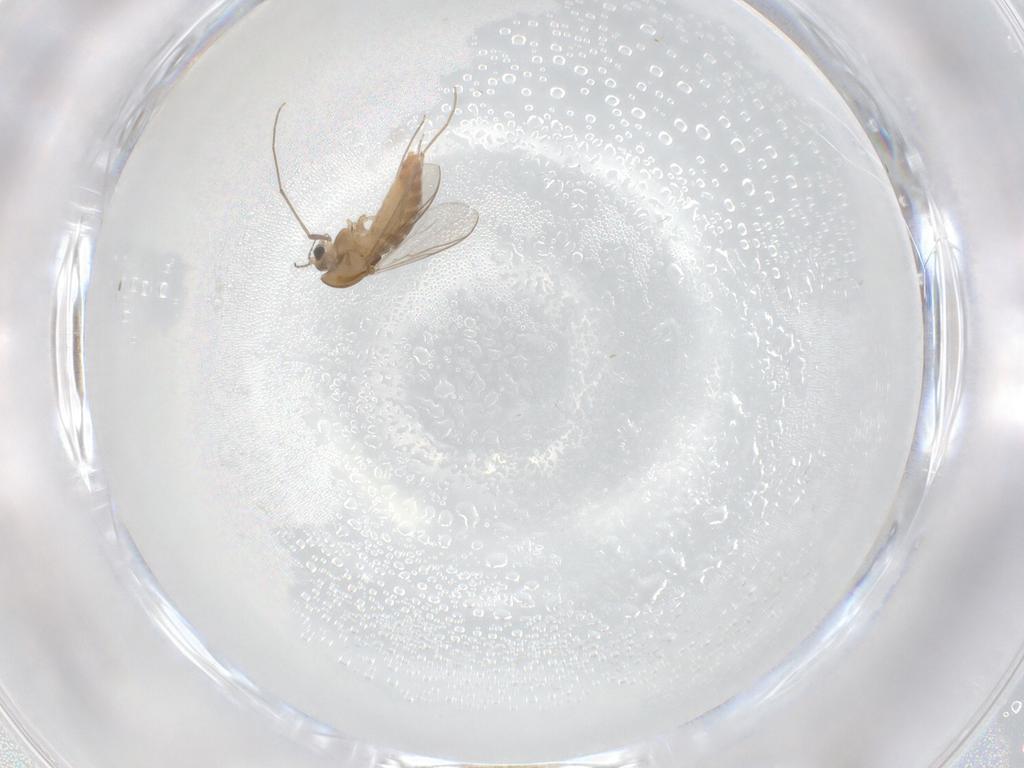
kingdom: Animalia
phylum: Arthropoda
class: Insecta
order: Diptera
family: Chironomidae
